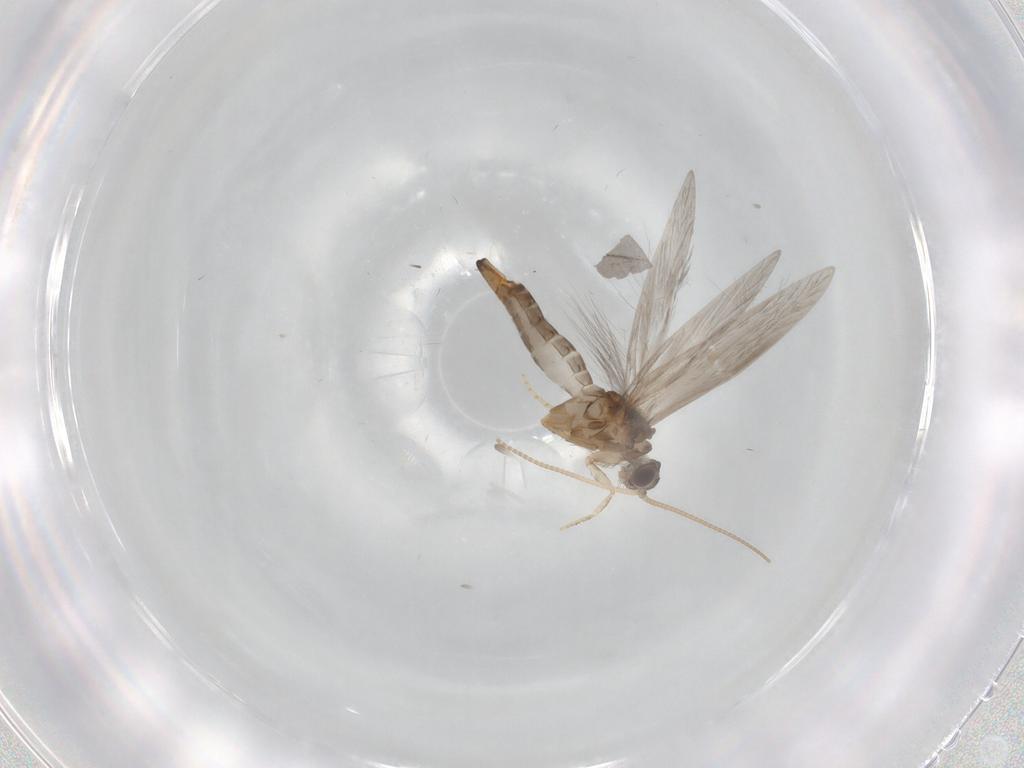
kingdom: Animalia
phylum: Arthropoda
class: Insecta
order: Trichoptera
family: Hydroptilidae
